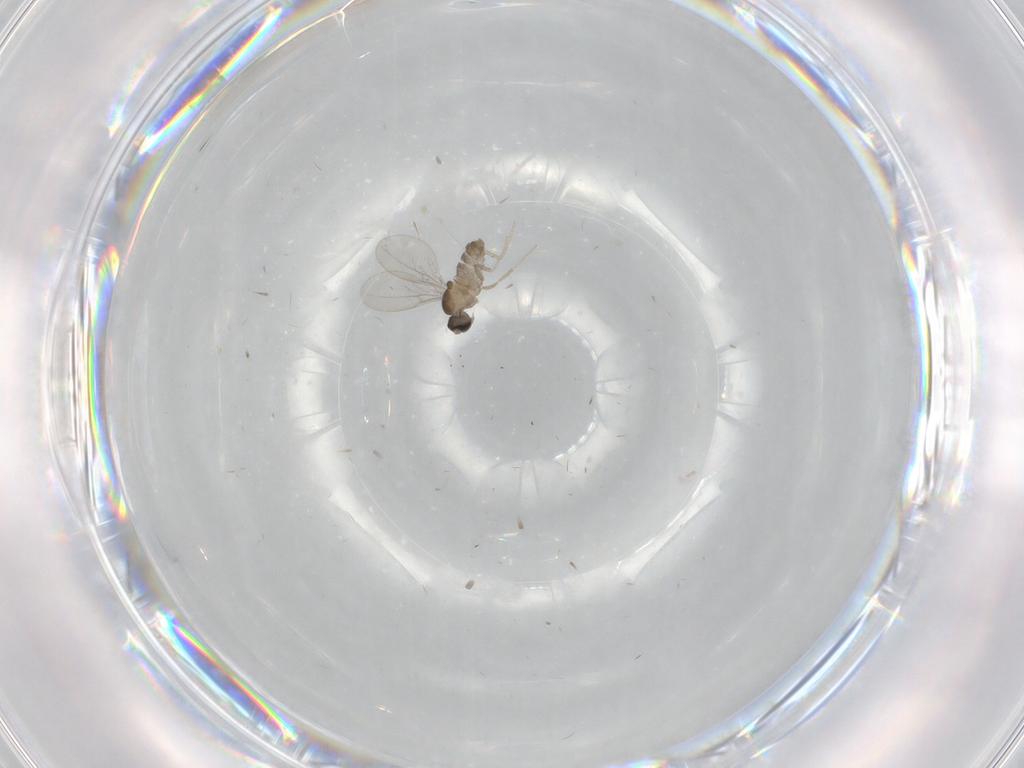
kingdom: Animalia
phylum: Arthropoda
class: Insecta
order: Diptera
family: Cecidomyiidae
